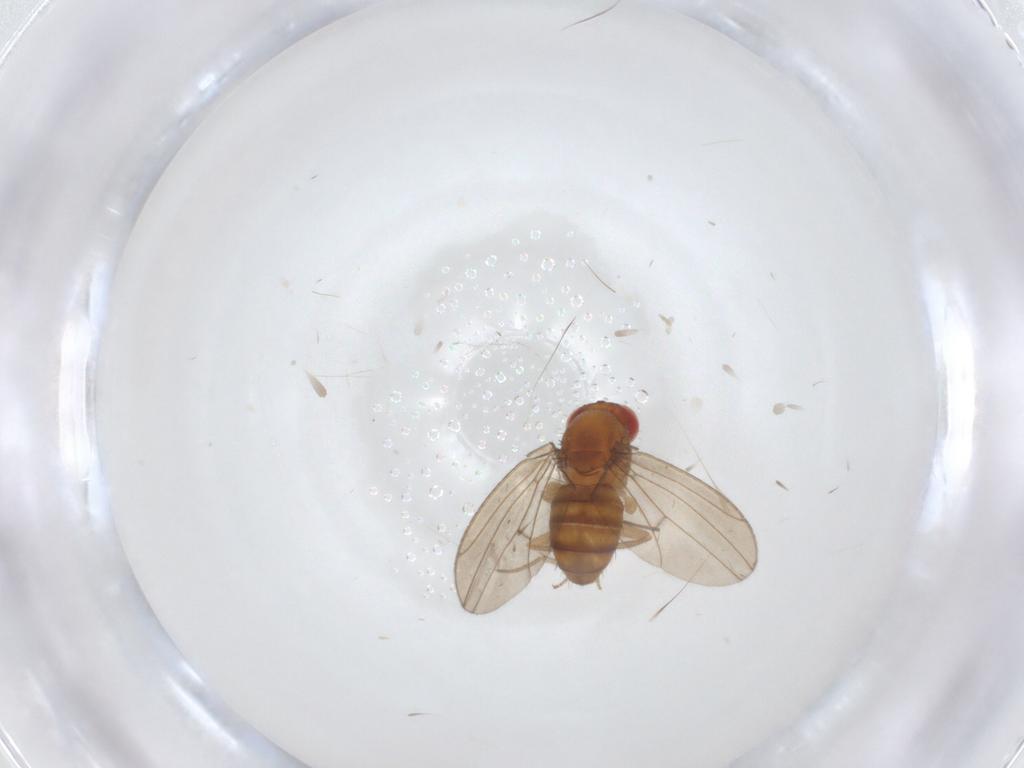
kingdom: Animalia
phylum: Arthropoda
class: Insecta
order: Diptera
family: Drosophilidae
